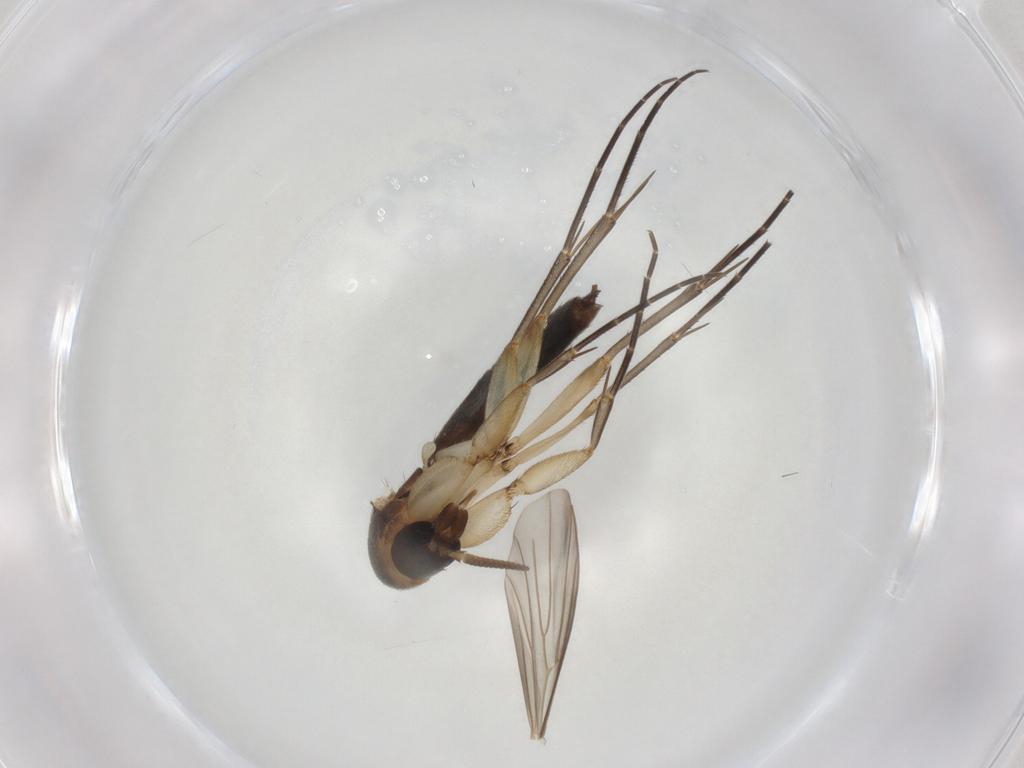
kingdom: Animalia
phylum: Arthropoda
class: Insecta
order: Diptera
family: Mycetophilidae
